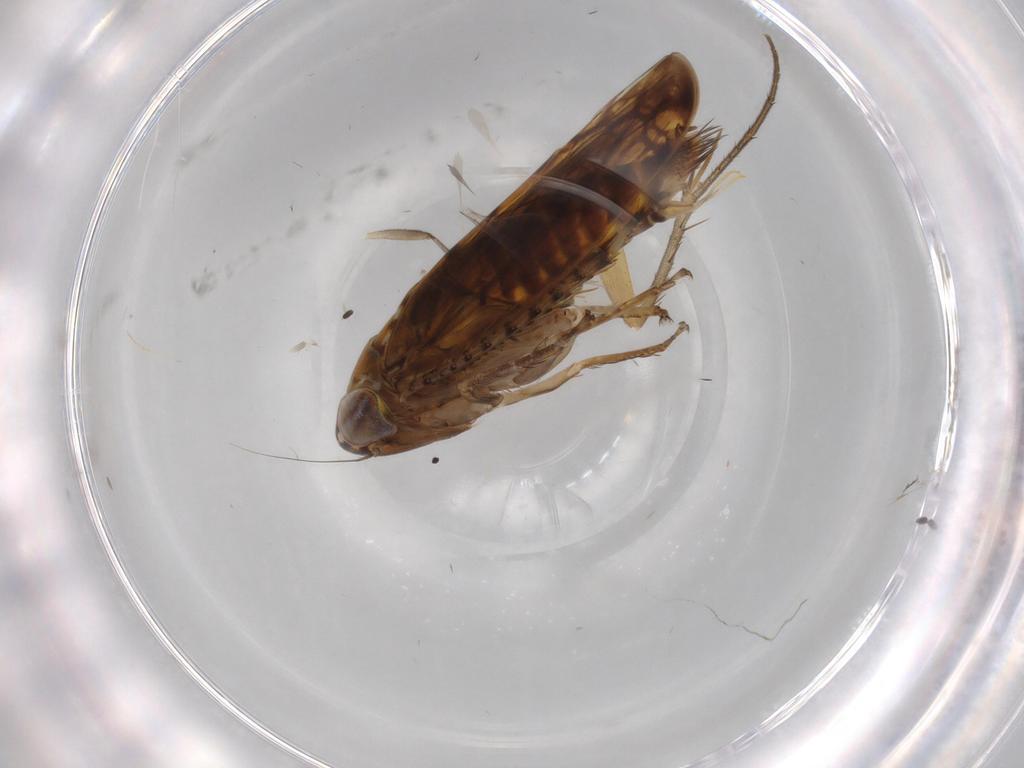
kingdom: Animalia
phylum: Arthropoda
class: Insecta
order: Hemiptera
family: Cicadellidae
